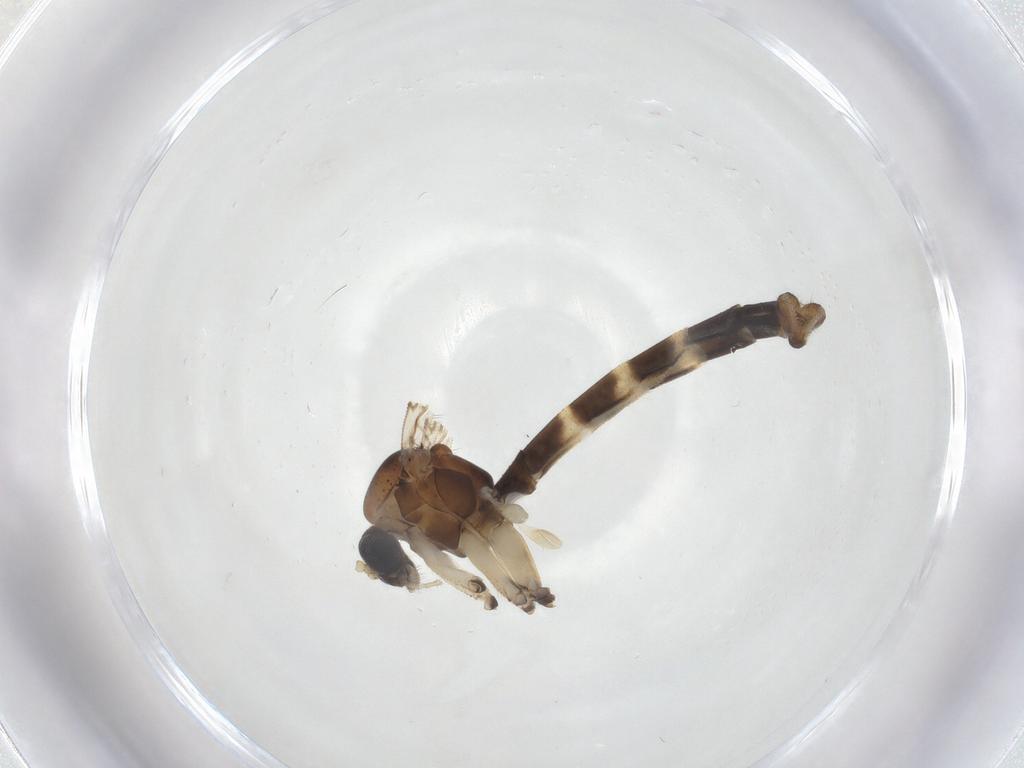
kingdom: Animalia
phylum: Arthropoda
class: Insecta
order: Diptera
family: Mycetophilidae
